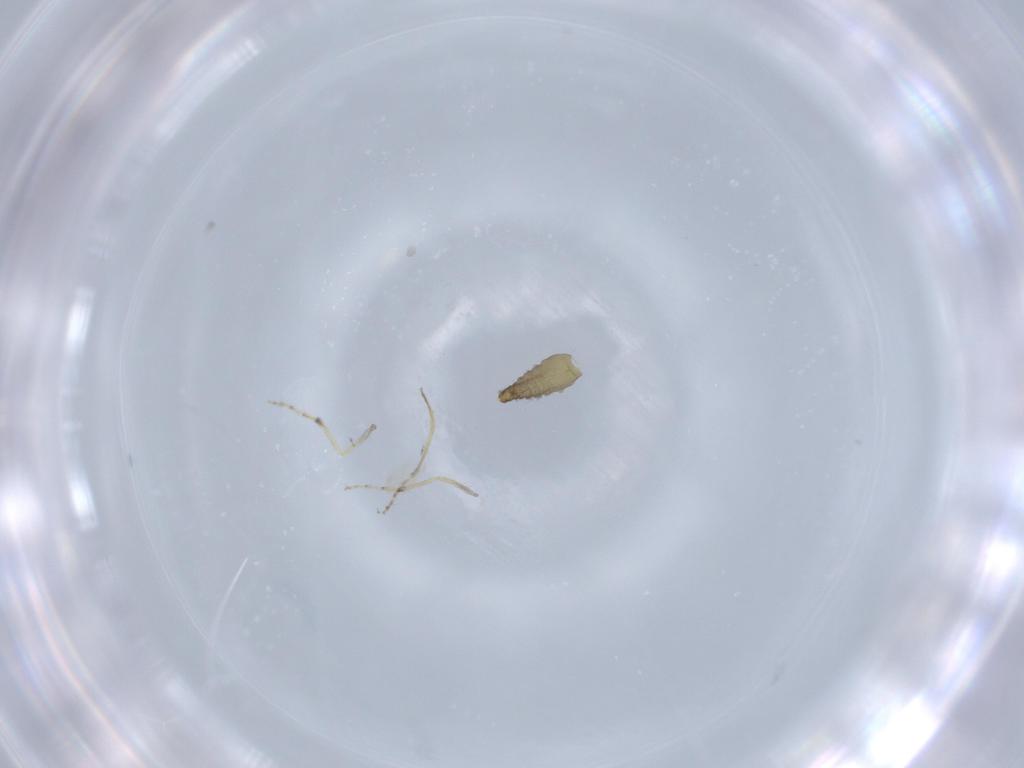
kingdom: Animalia
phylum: Arthropoda
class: Insecta
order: Diptera
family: Ceratopogonidae
